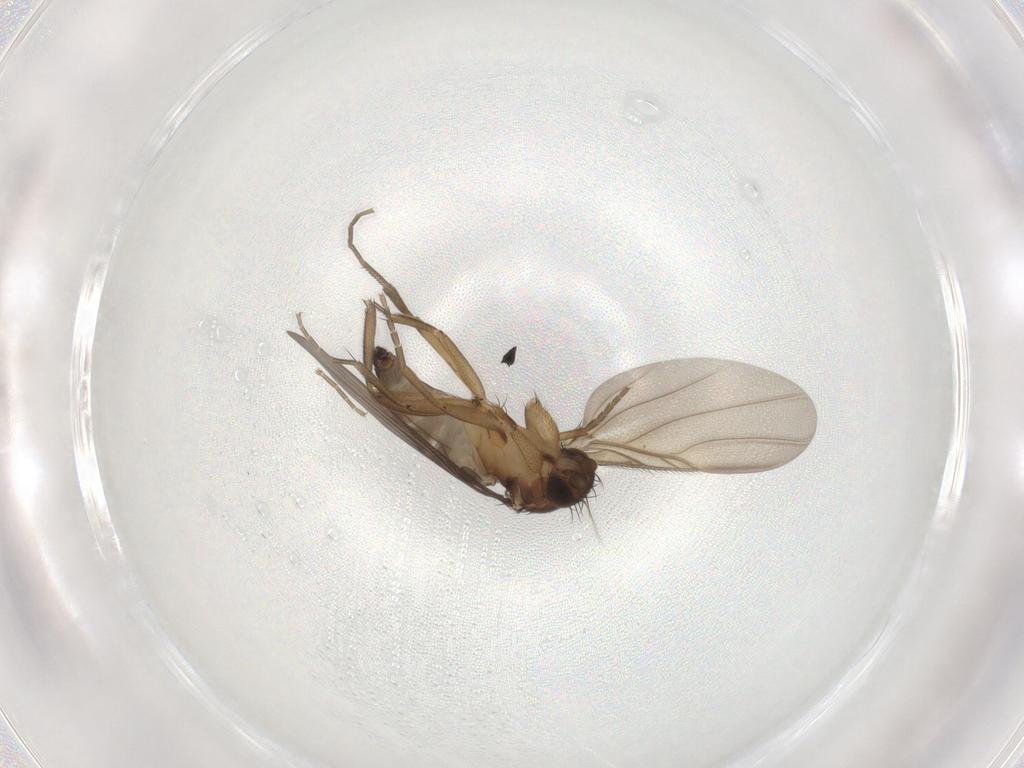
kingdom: Animalia
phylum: Arthropoda
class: Insecta
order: Diptera
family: Phoridae
